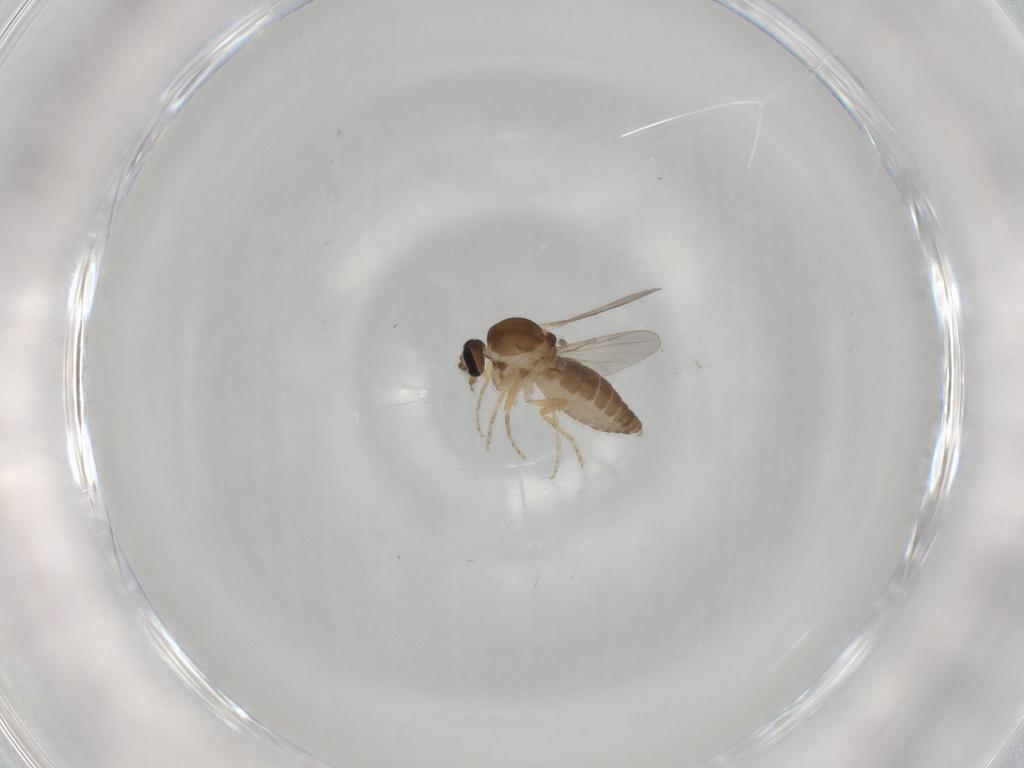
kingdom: Animalia
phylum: Arthropoda
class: Insecta
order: Diptera
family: Ceratopogonidae
